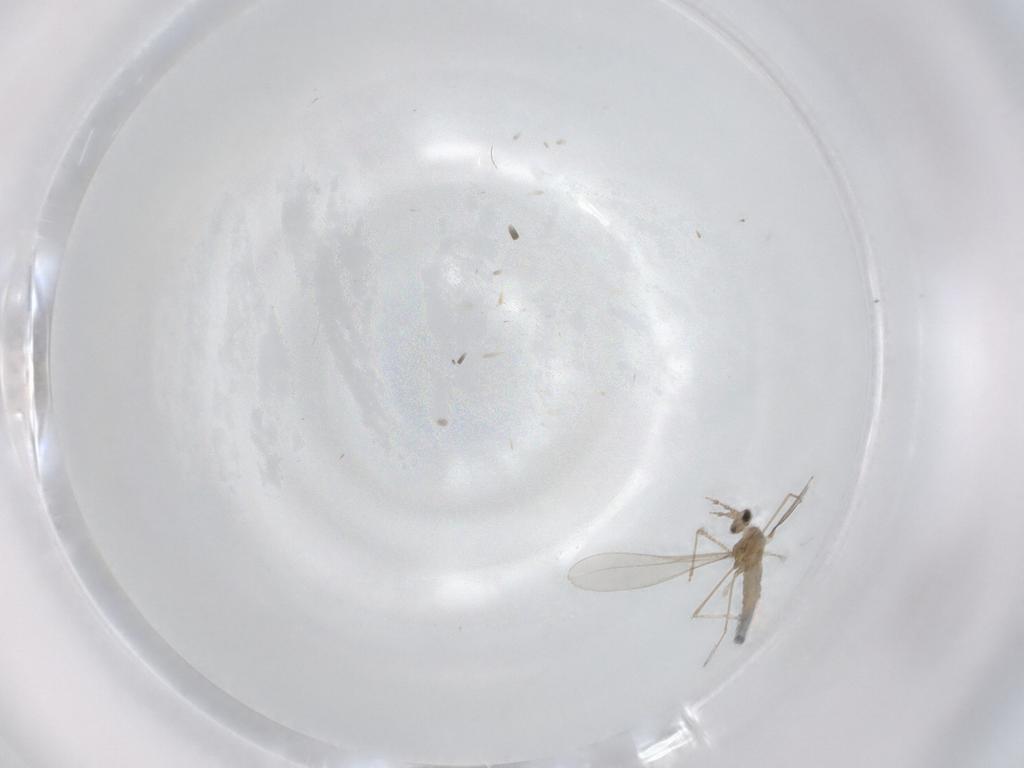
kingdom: Animalia
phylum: Arthropoda
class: Insecta
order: Diptera
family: Cecidomyiidae
